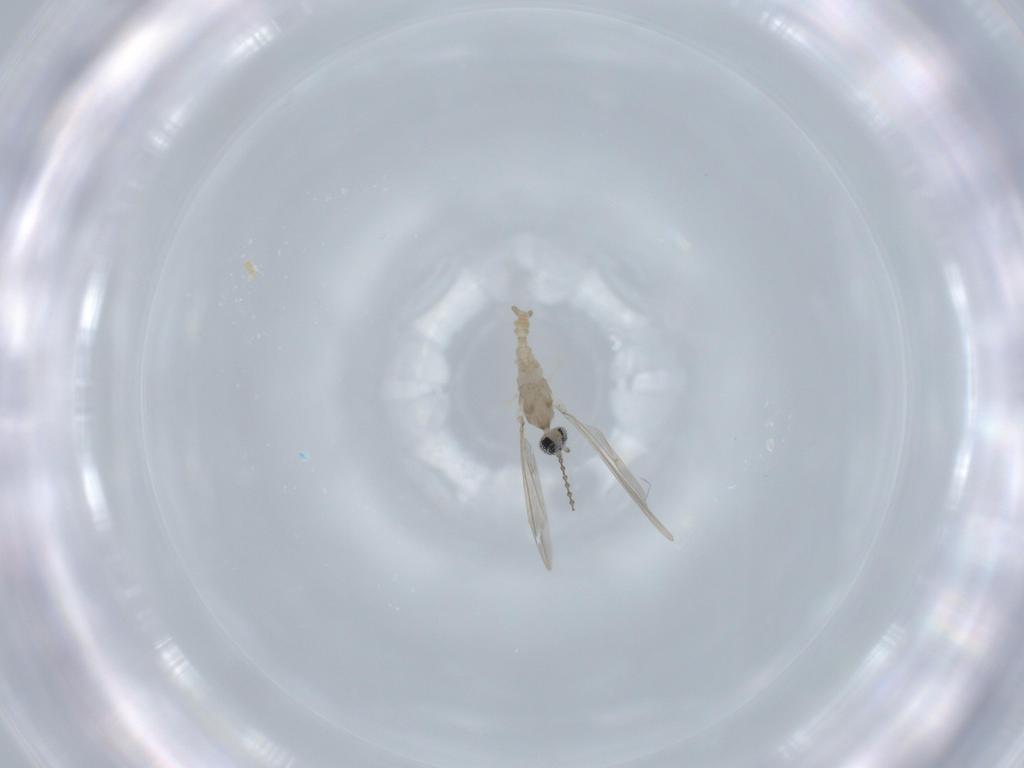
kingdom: Animalia
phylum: Arthropoda
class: Insecta
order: Diptera
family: Cecidomyiidae
